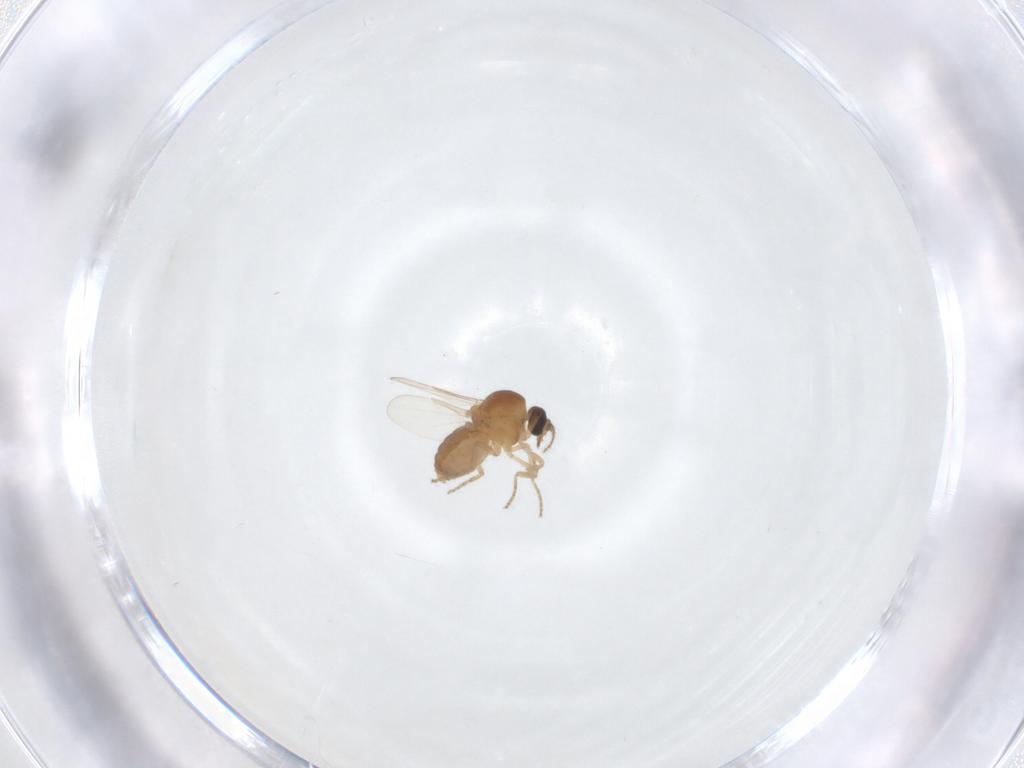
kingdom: Animalia
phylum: Arthropoda
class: Insecta
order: Diptera
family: Ceratopogonidae
